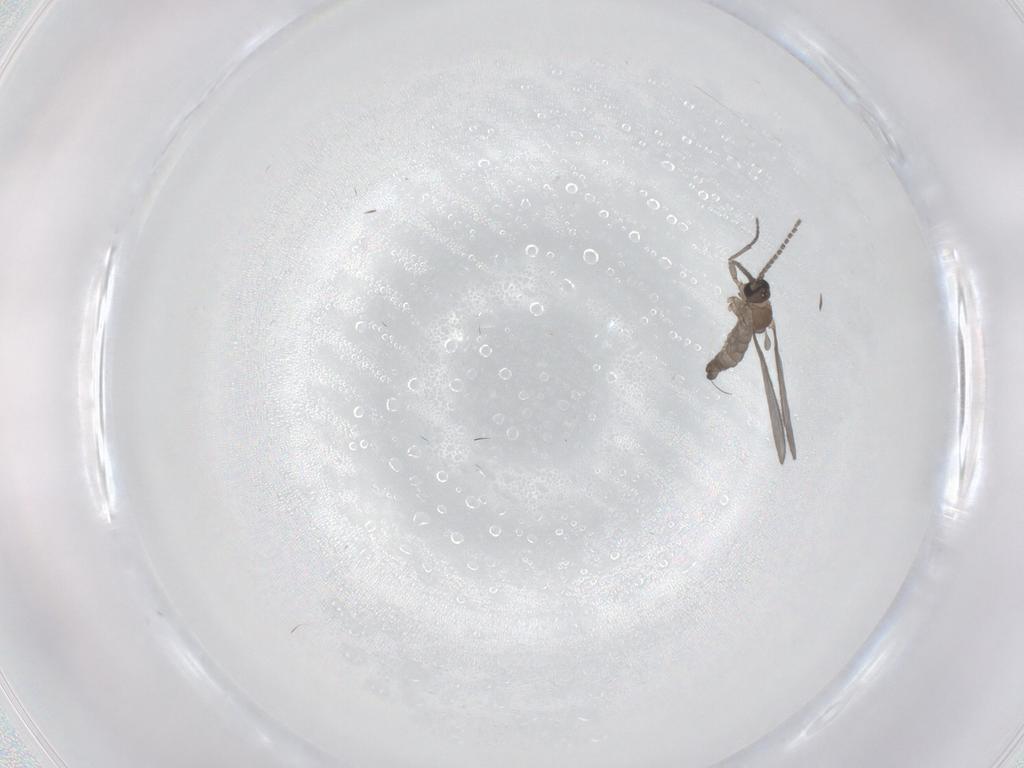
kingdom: Animalia
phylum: Arthropoda
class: Insecta
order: Diptera
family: Sciaridae
